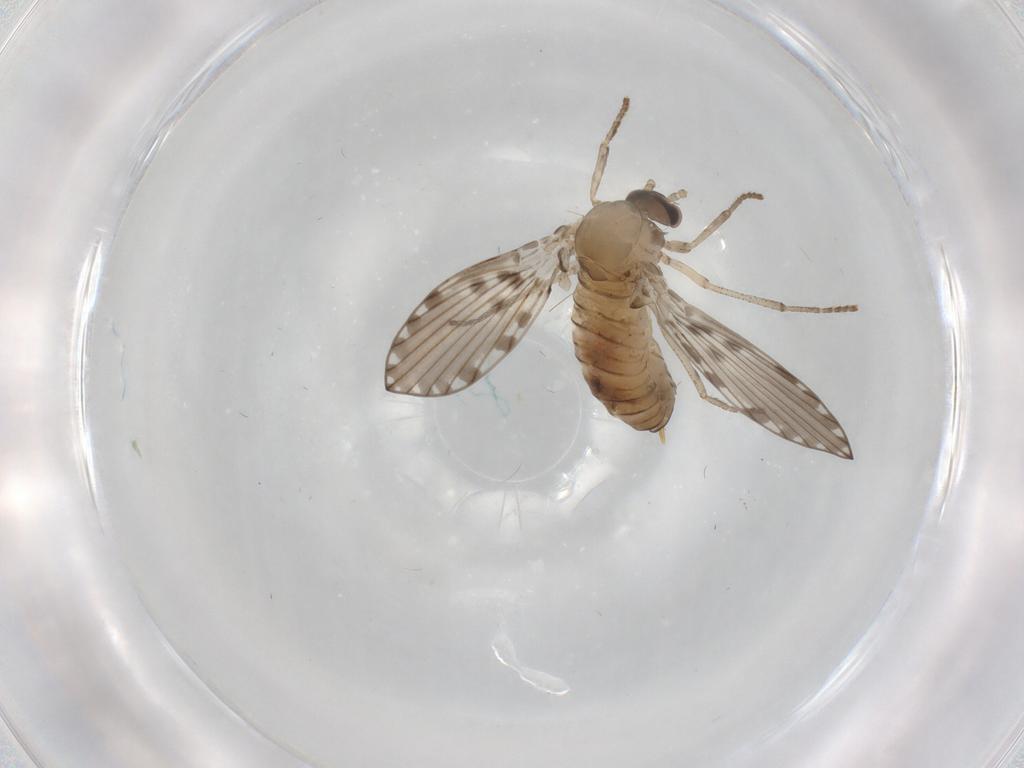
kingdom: Animalia
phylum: Arthropoda
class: Insecta
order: Diptera
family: Psychodidae
